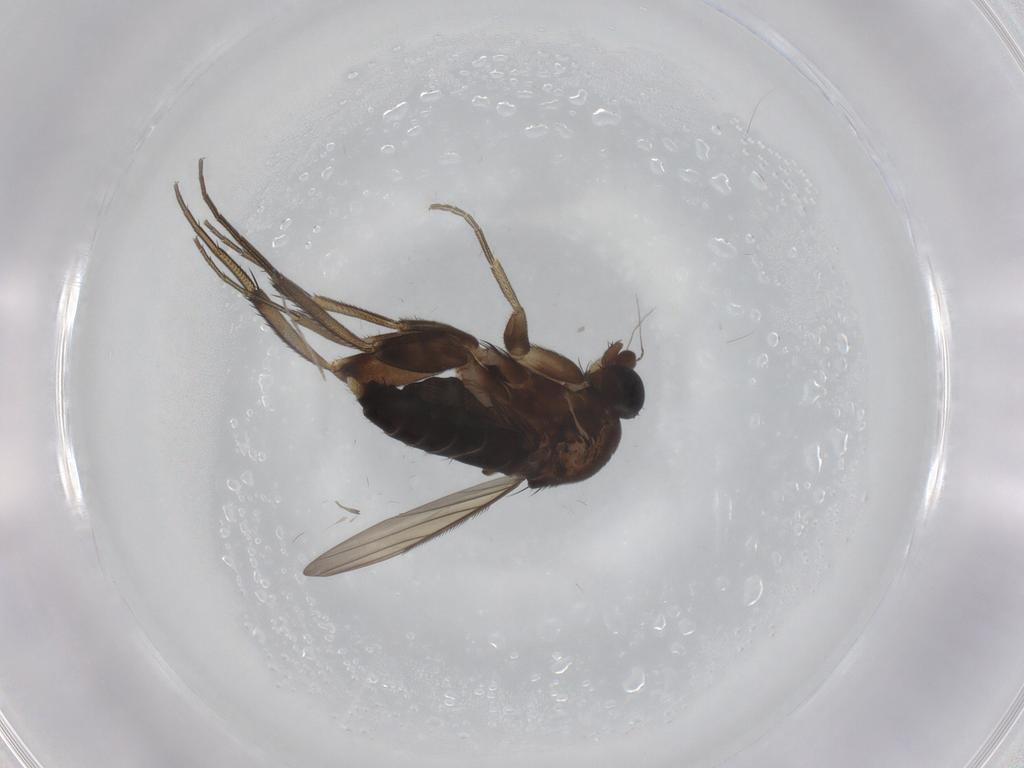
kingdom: Animalia
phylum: Arthropoda
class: Insecta
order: Diptera
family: Phoridae
